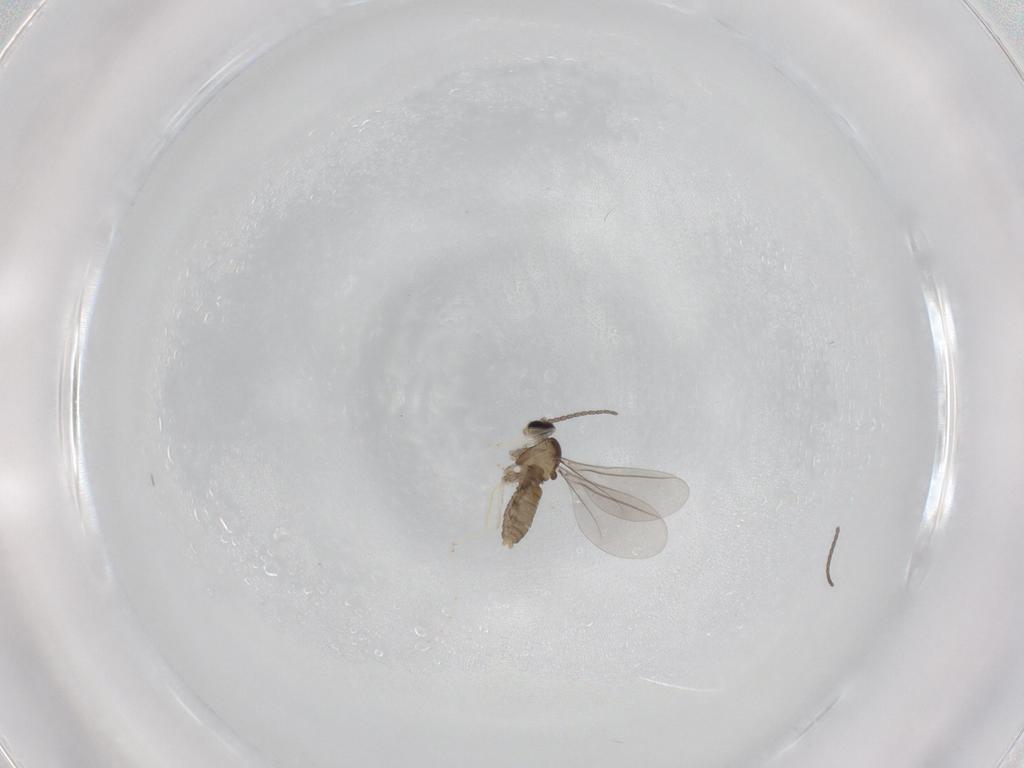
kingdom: Animalia
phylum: Arthropoda
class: Insecta
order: Diptera
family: Cecidomyiidae
